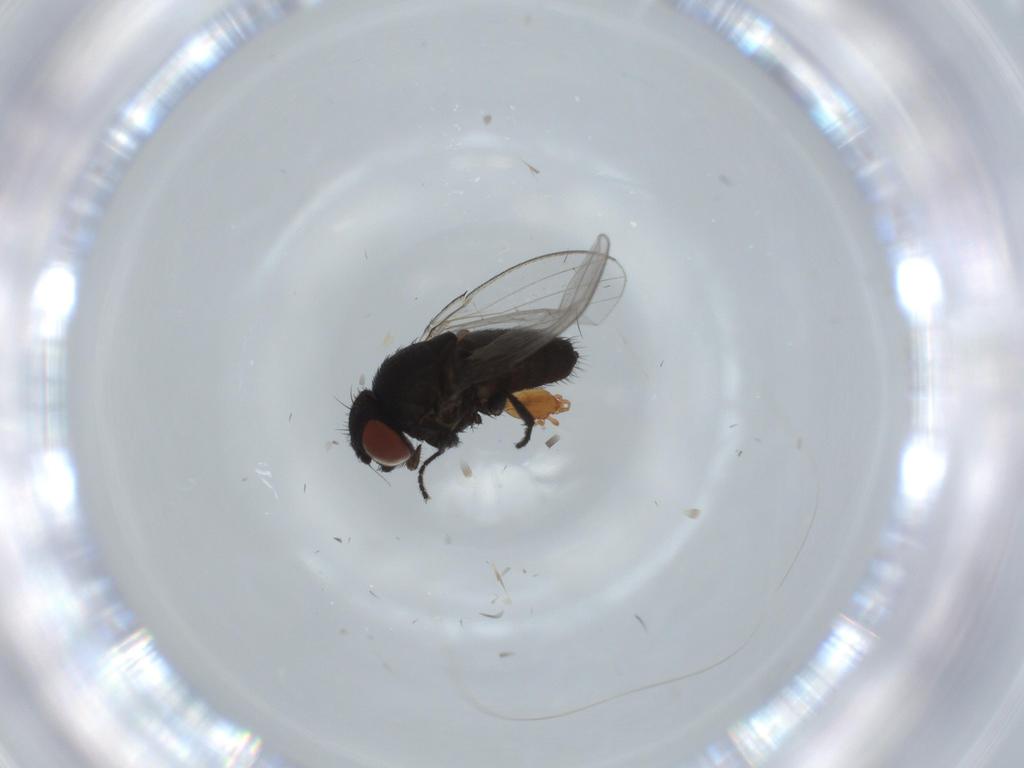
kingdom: Animalia
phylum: Arthropoda
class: Insecta
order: Diptera
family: Milichiidae
